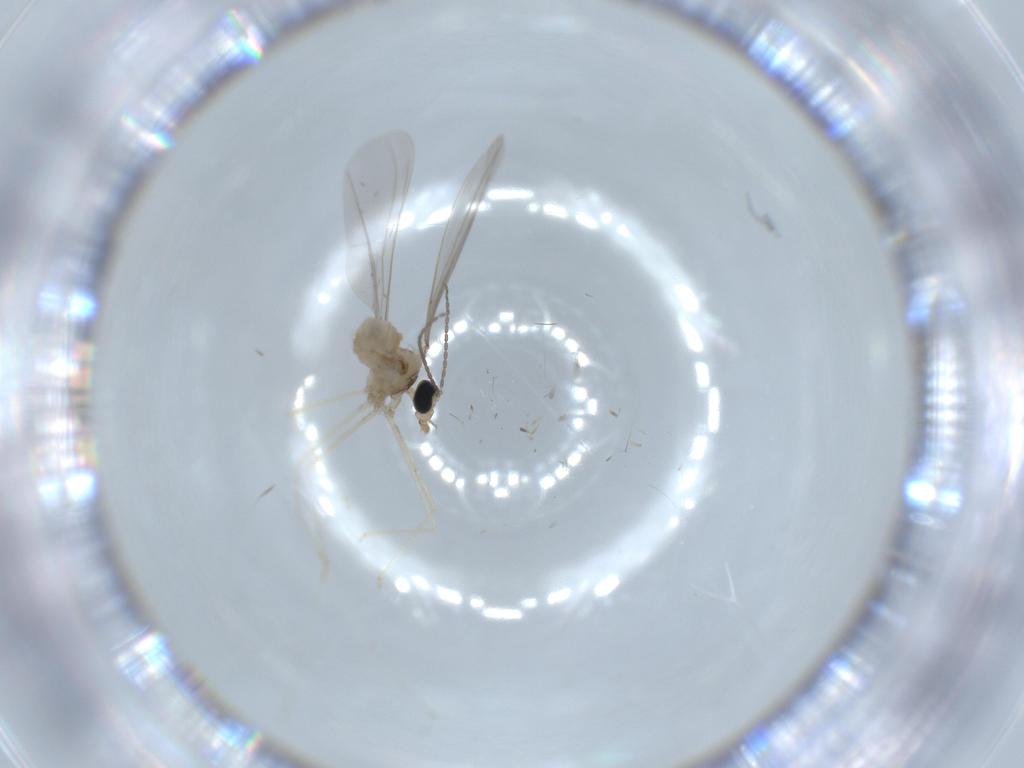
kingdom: Animalia
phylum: Arthropoda
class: Insecta
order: Diptera
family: Cecidomyiidae
